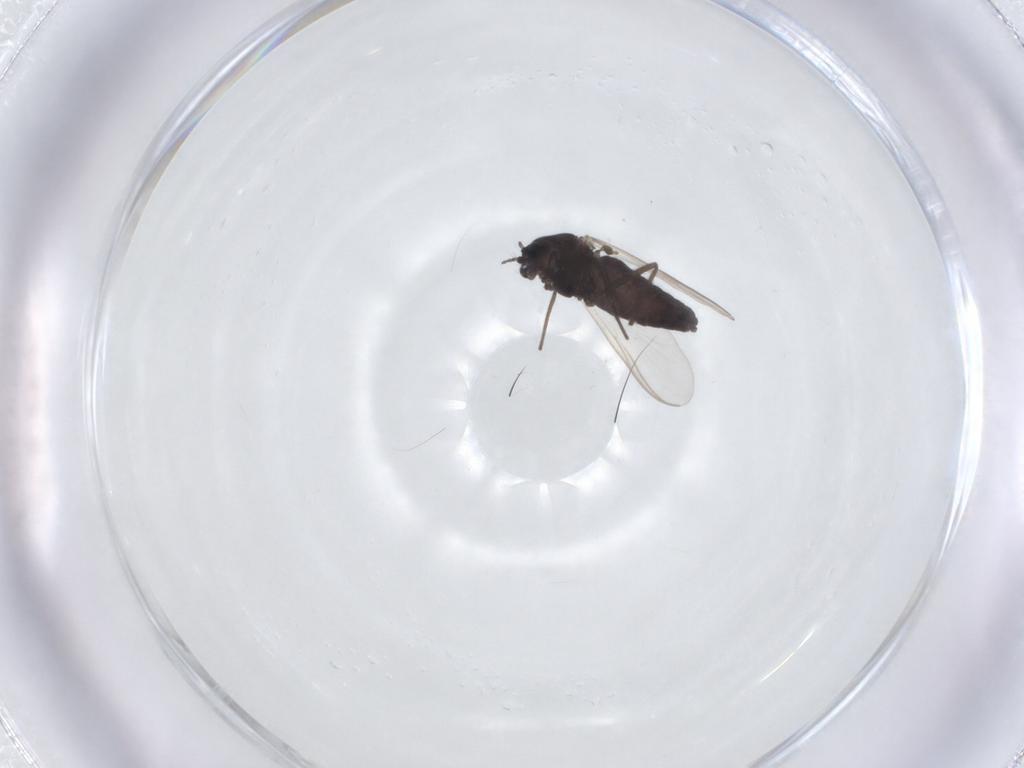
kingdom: Animalia
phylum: Arthropoda
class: Insecta
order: Diptera
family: Chironomidae
